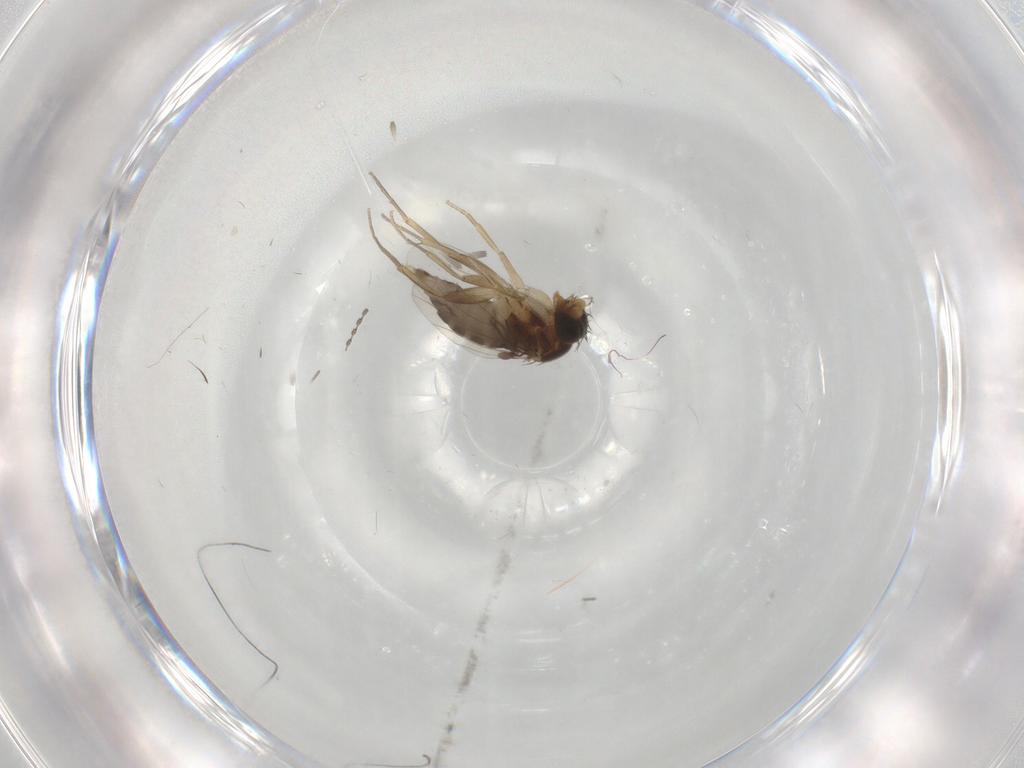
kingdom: Animalia
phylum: Arthropoda
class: Insecta
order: Diptera
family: Phoridae
